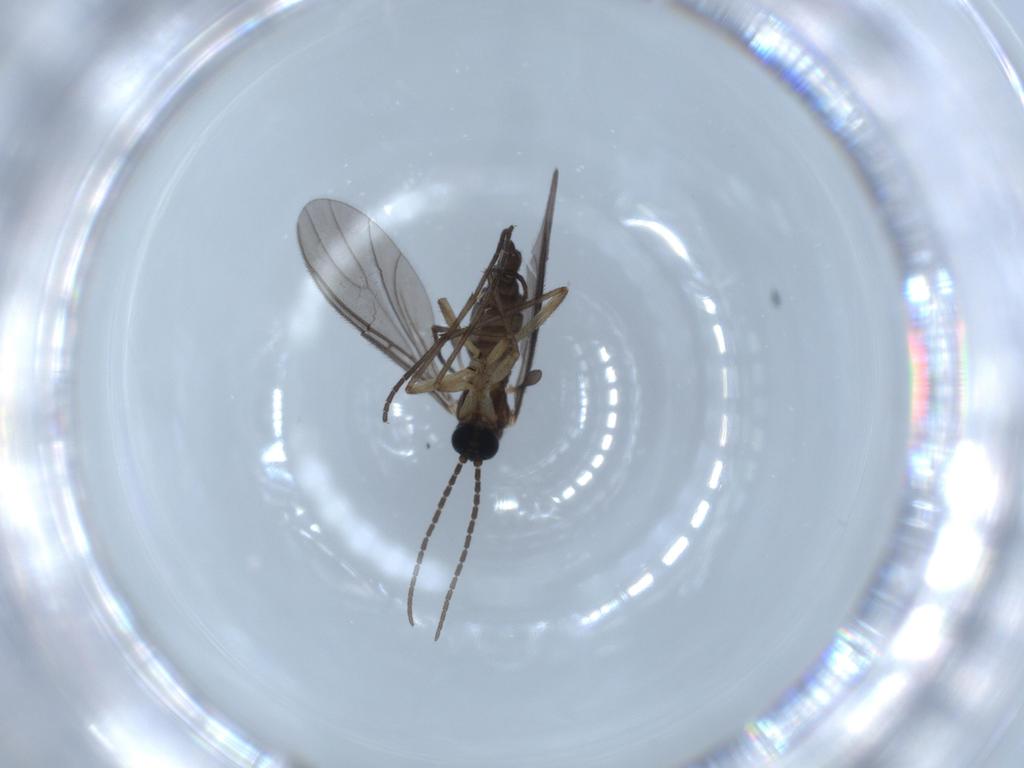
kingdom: Animalia
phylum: Arthropoda
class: Insecta
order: Diptera
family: Sciaridae
